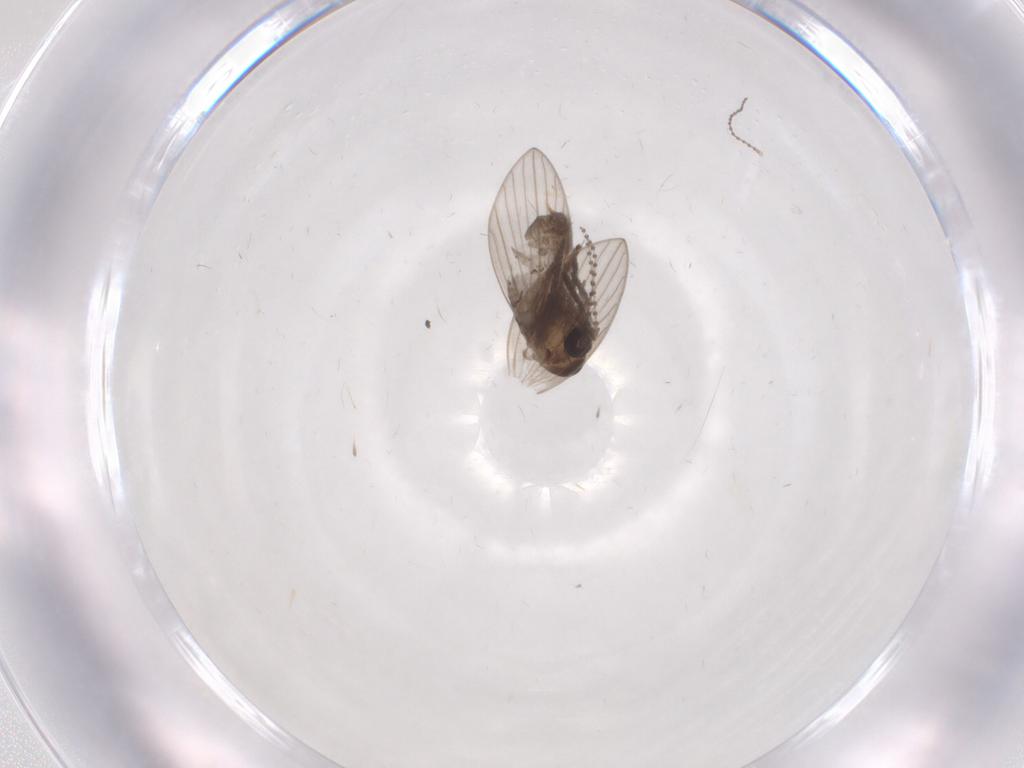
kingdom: Animalia
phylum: Arthropoda
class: Insecta
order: Diptera
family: Psychodidae
